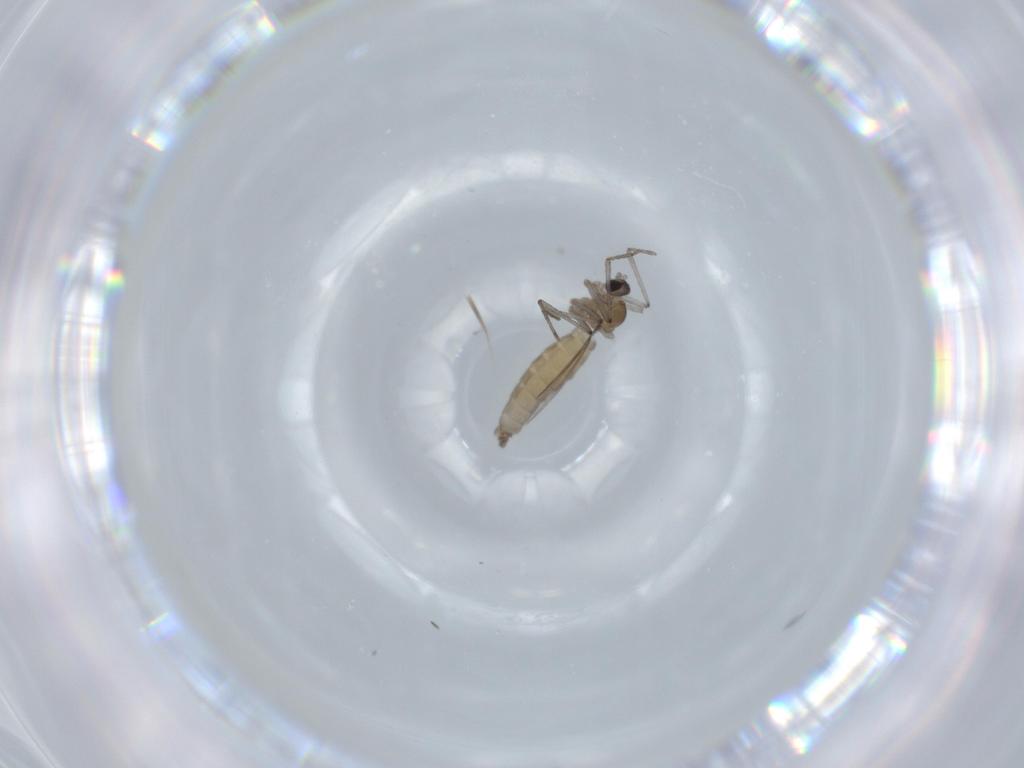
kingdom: Animalia
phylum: Arthropoda
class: Insecta
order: Diptera
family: Cecidomyiidae
